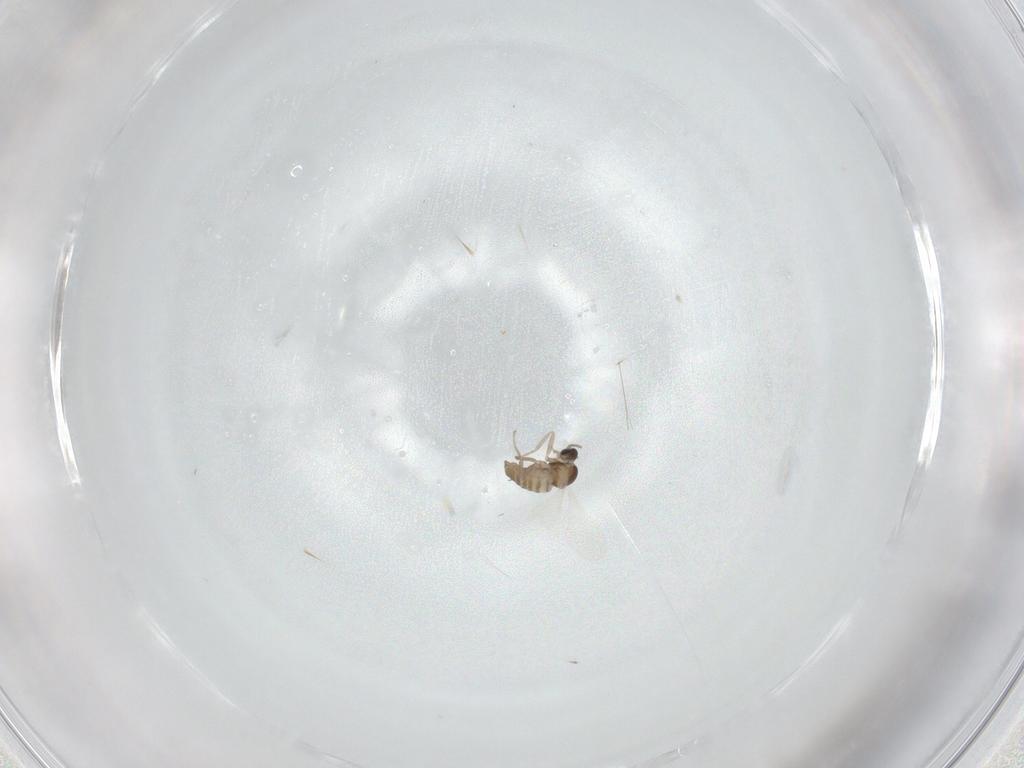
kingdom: Animalia
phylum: Arthropoda
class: Insecta
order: Diptera
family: Cecidomyiidae
